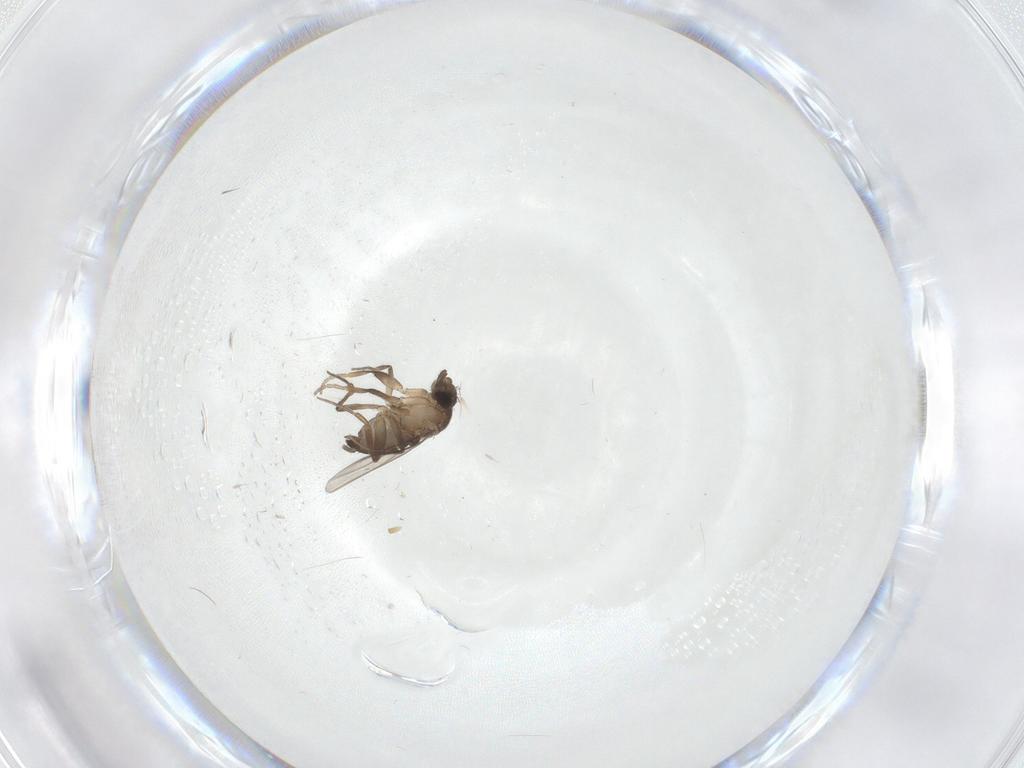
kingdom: Animalia
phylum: Arthropoda
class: Insecta
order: Diptera
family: Phoridae
